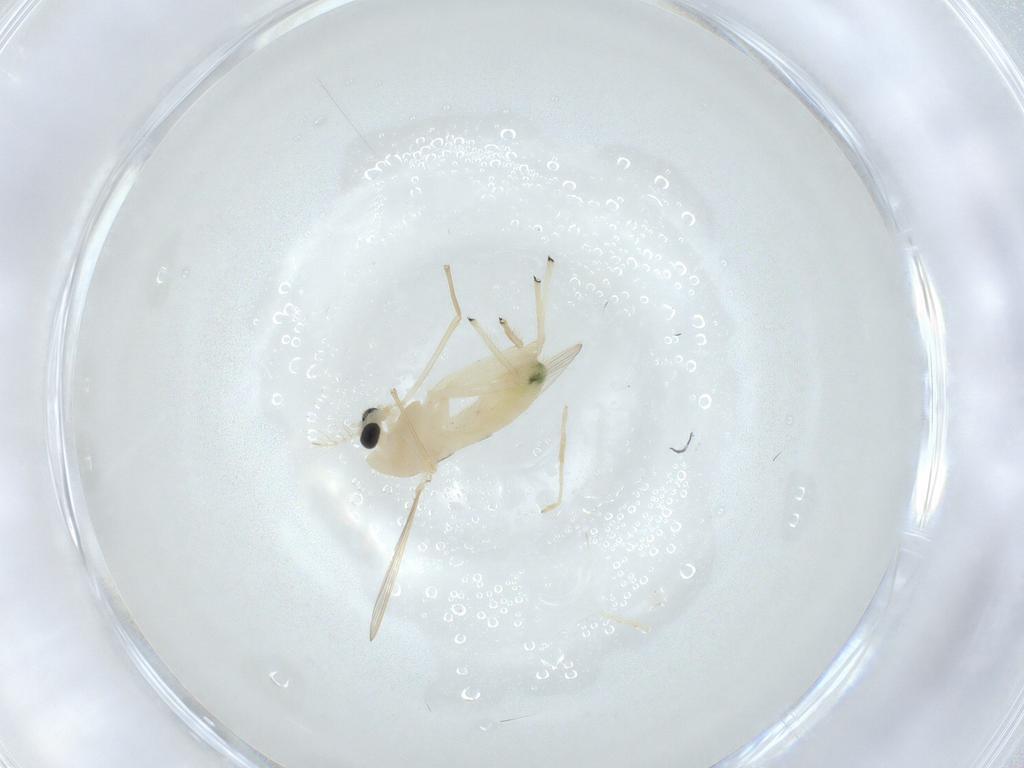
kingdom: Animalia
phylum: Arthropoda
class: Insecta
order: Diptera
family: Chironomidae
